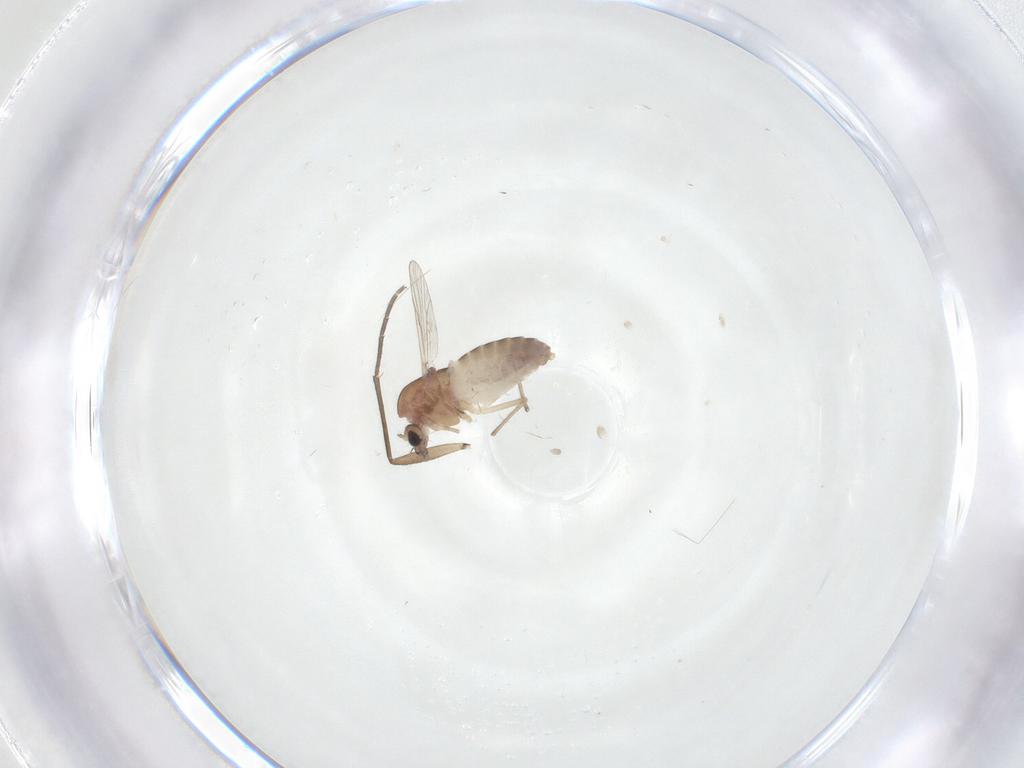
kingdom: Animalia
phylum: Arthropoda
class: Insecta
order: Diptera
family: Chironomidae
